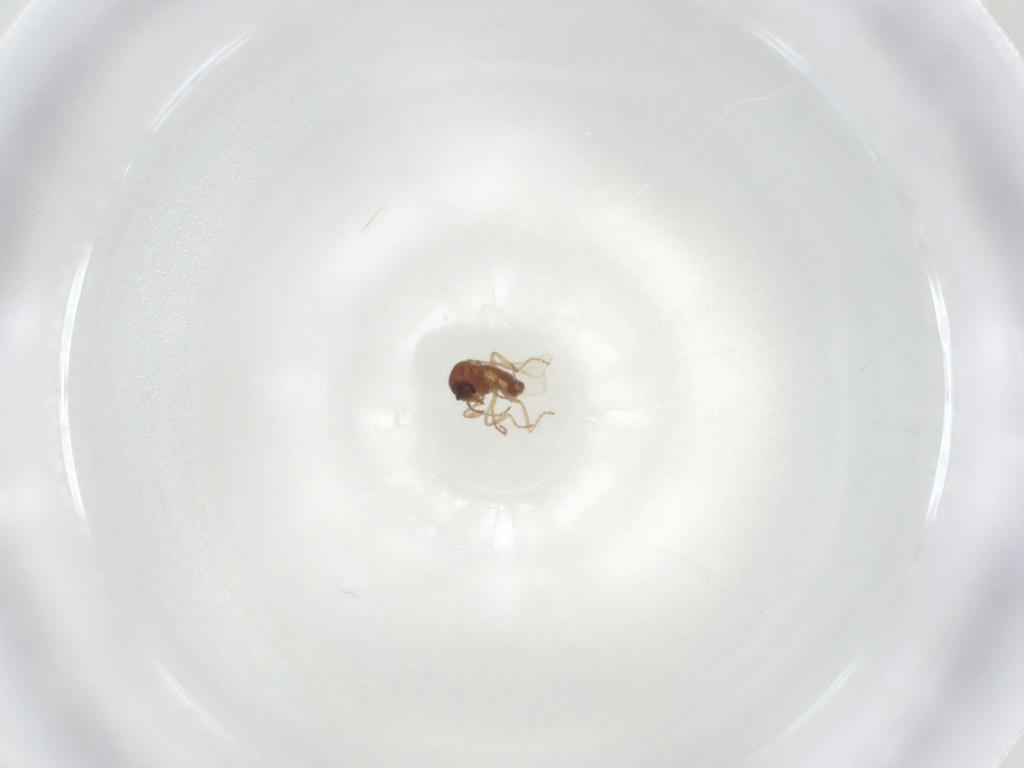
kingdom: Animalia
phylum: Arthropoda
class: Insecta
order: Diptera
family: Ceratopogonidae
